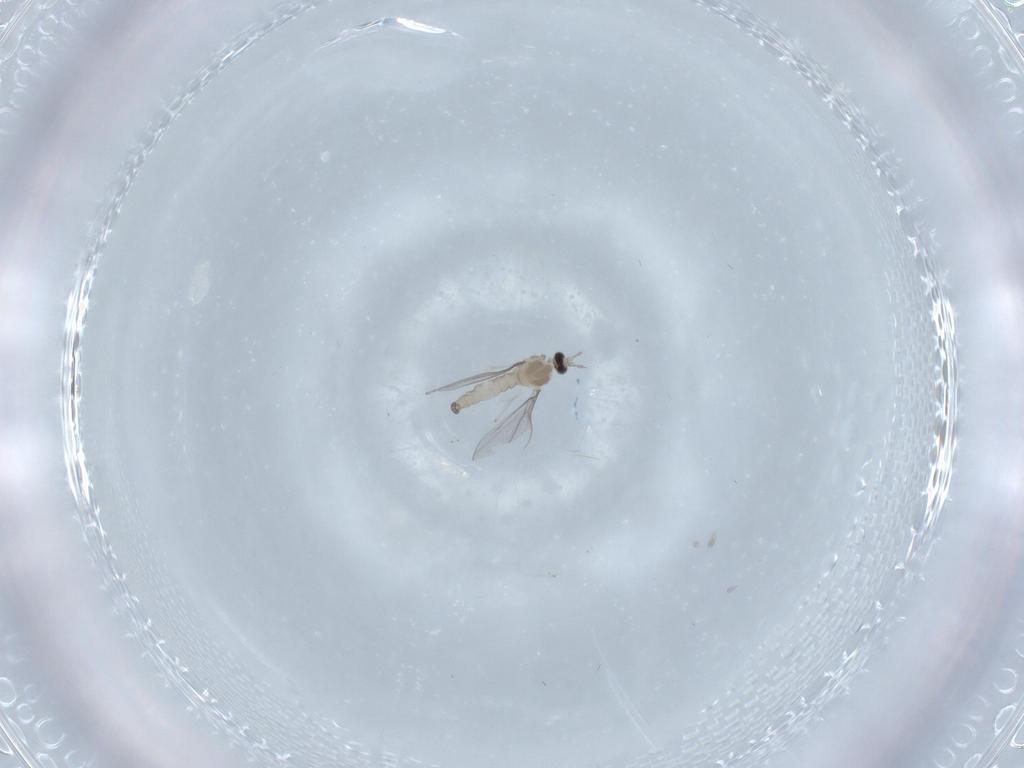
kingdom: Animalia
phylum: Arthropoda
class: Insecta
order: Diptera
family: Cecidomyiidae
